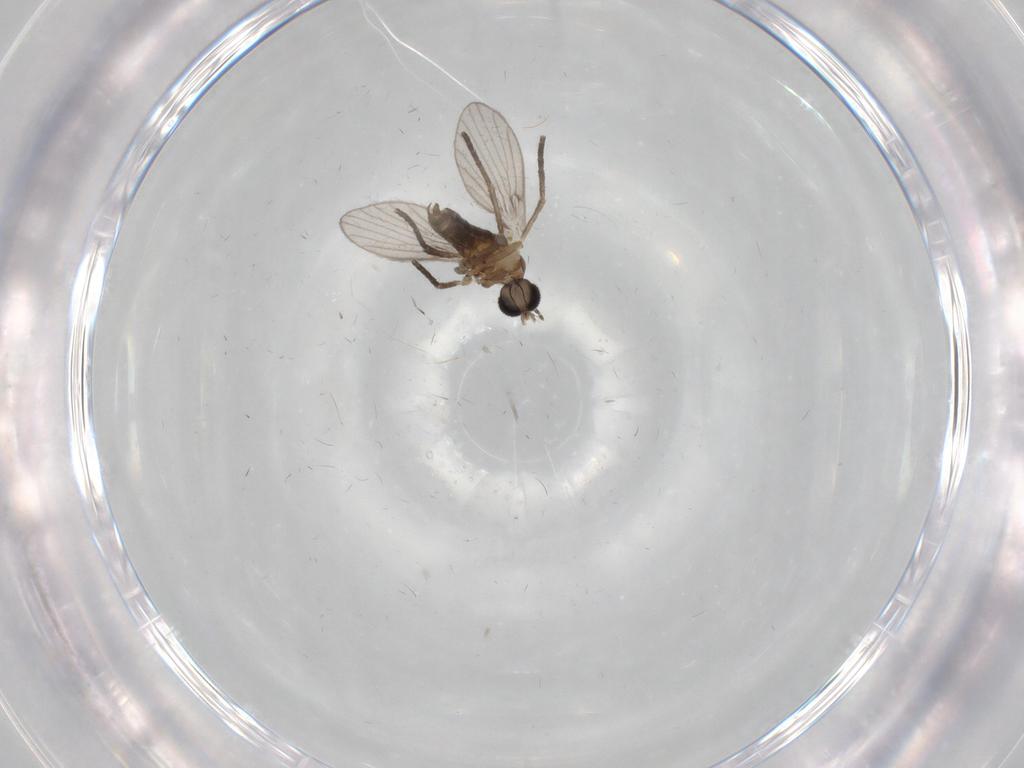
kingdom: Animalia
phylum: Arthropoda
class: Insecta
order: Diptera
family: Psychodidae
